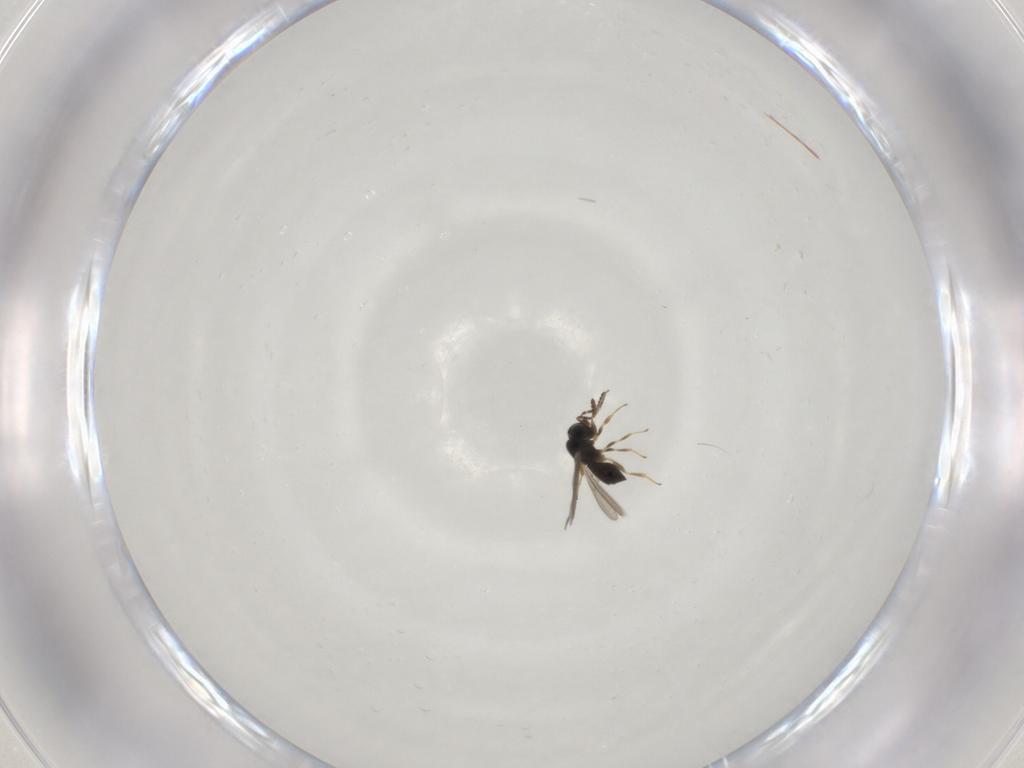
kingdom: Animalia
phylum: Arthropoda
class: Insecta
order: Hymenoptera
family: Scelionidae
